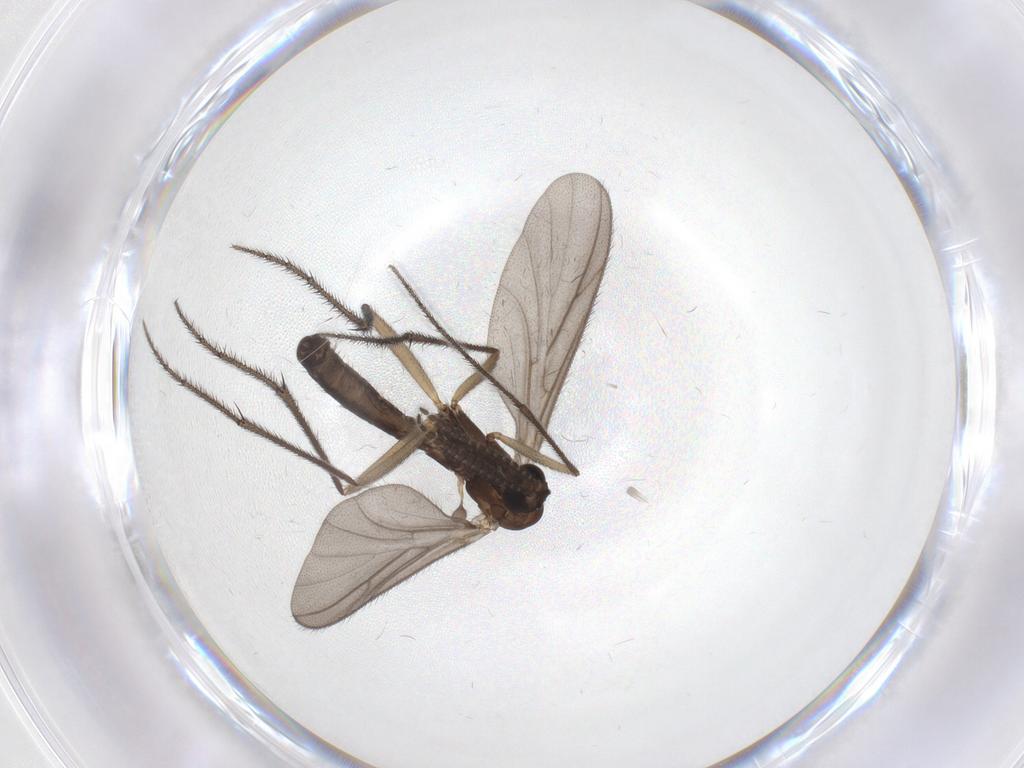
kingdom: Animalia
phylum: Arthropoda
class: Insecta
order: Diptera
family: Ditomyiidae
